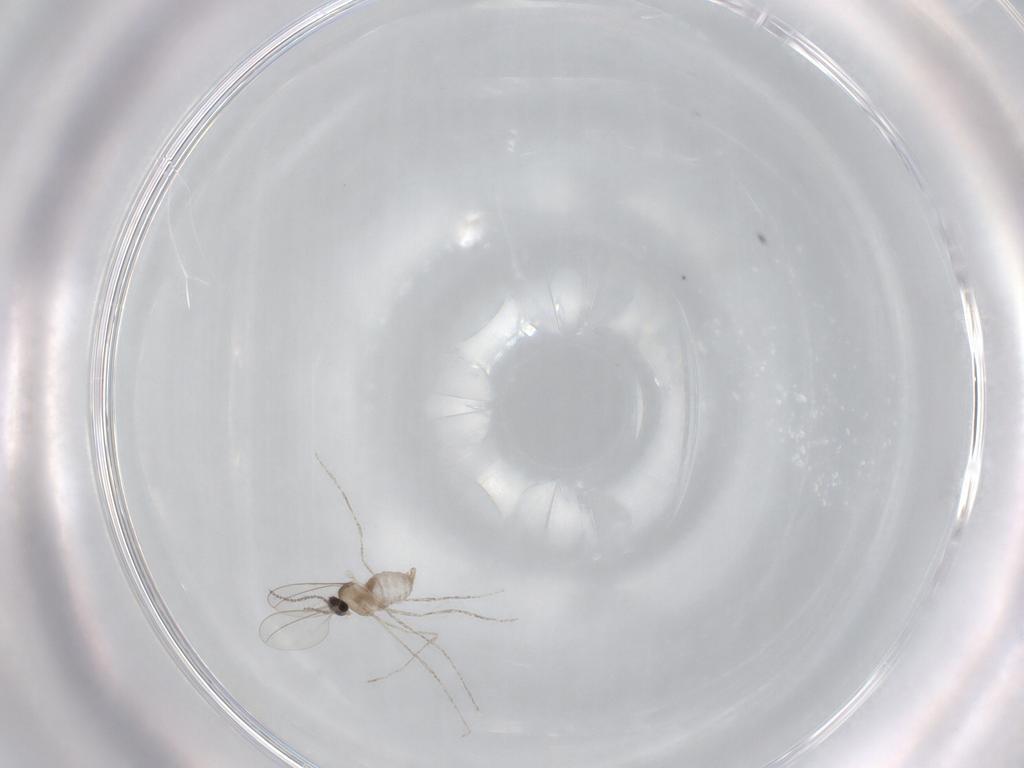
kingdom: Animalia
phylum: Arthropoda
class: Insecta
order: Diptera
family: Cecidomyiidae
